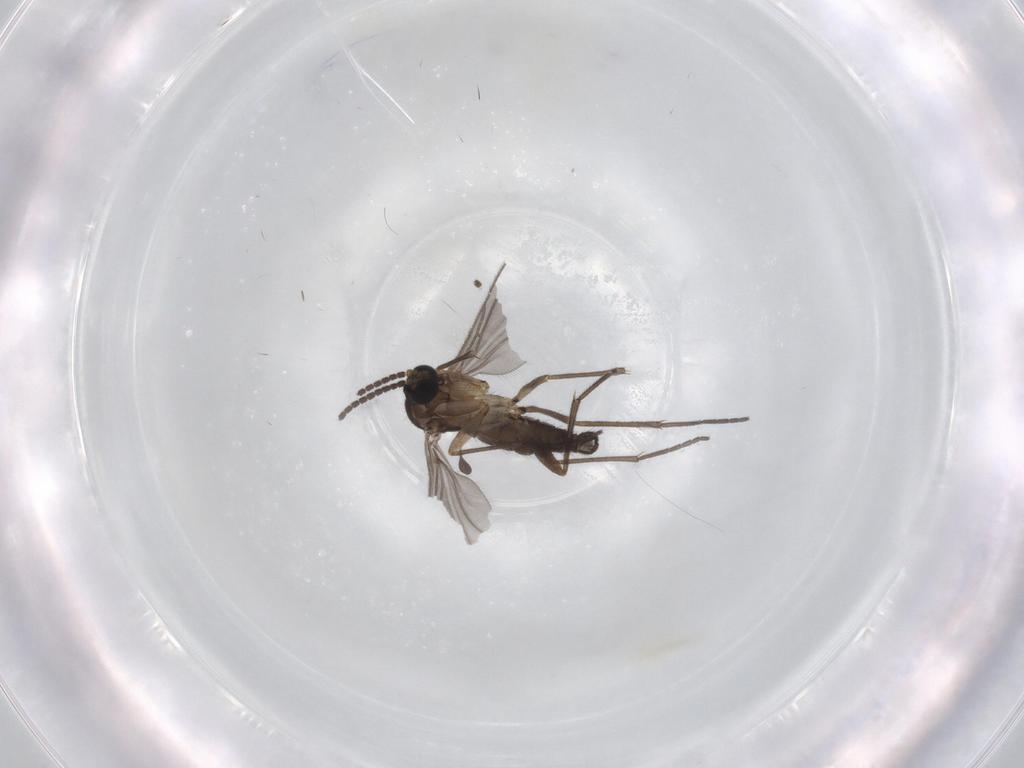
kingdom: Animalia
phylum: Arthropoda
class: Insecta
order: Diptera
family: Sciaridae
